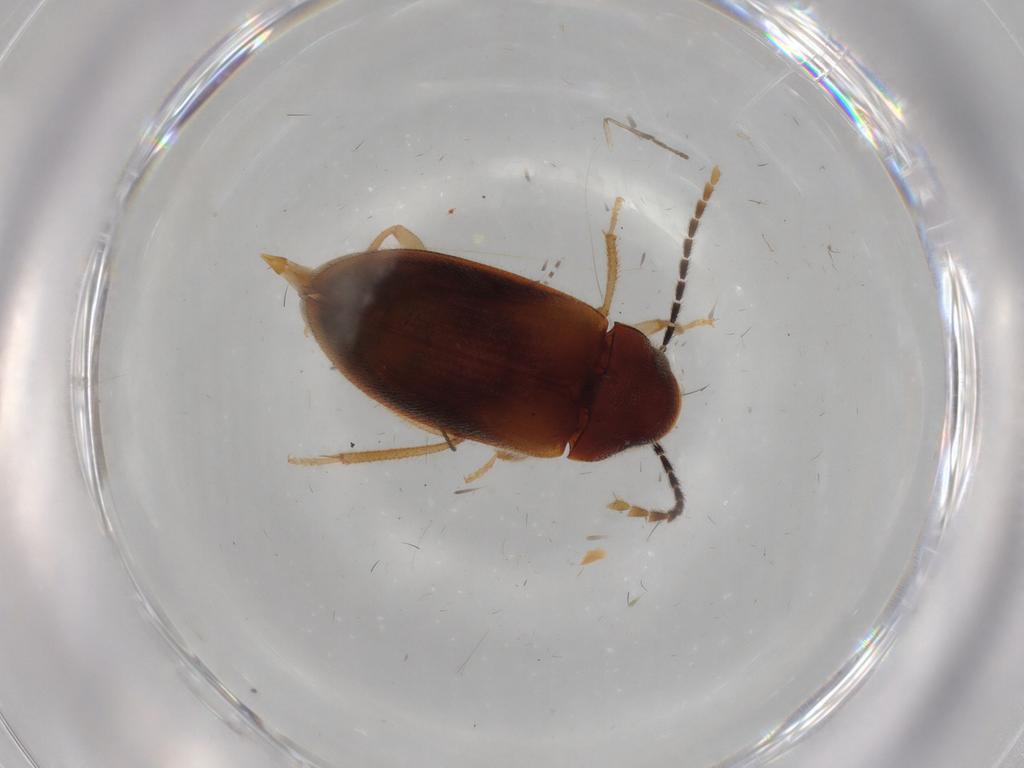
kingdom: Animalia
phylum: Arthropoda
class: Insecta
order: Coleoptera
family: Ptilodactylidae
